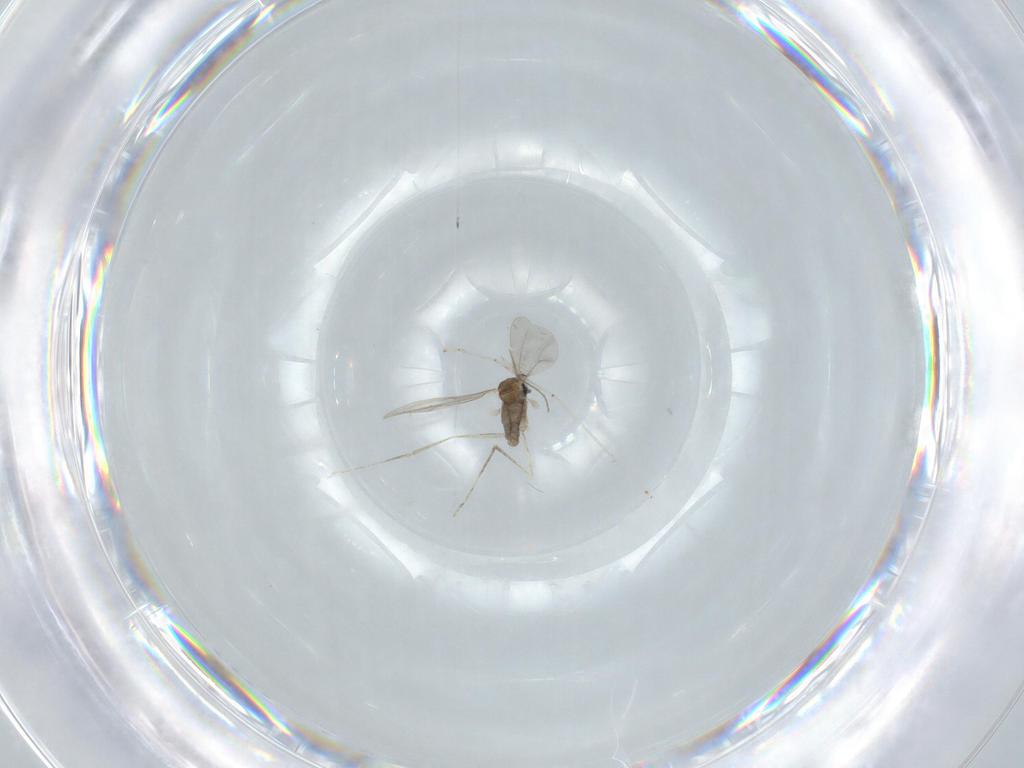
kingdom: Animalia
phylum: Arthropoda
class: Insecta
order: Diptera
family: Cecidomyiidae
